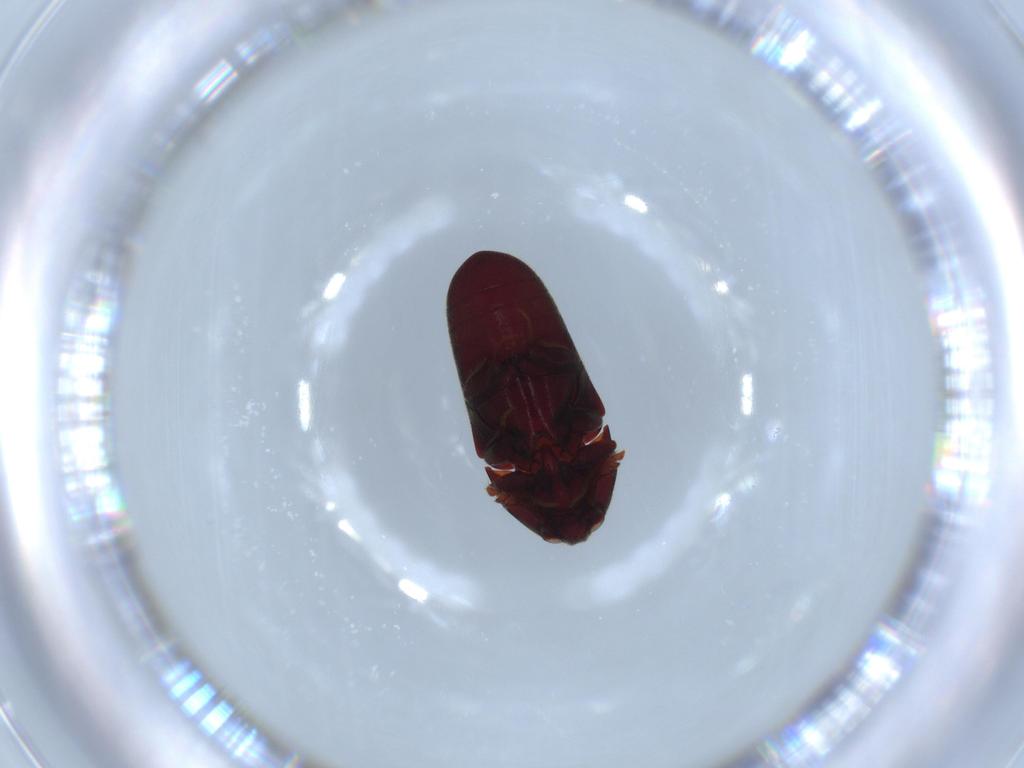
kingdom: Animalia
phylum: Arthropoda
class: Insecta
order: Coleoptera
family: Throscidae
